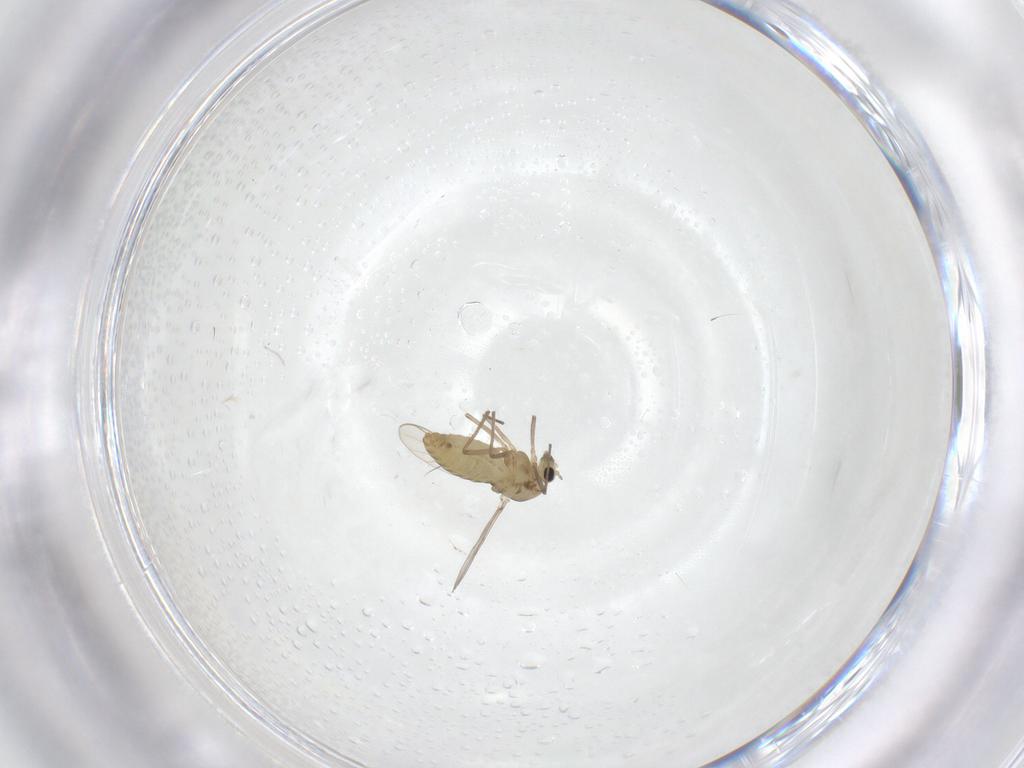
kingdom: Animalia
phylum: Arthropoda
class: Insecta
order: Diptera
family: Chironomidae
